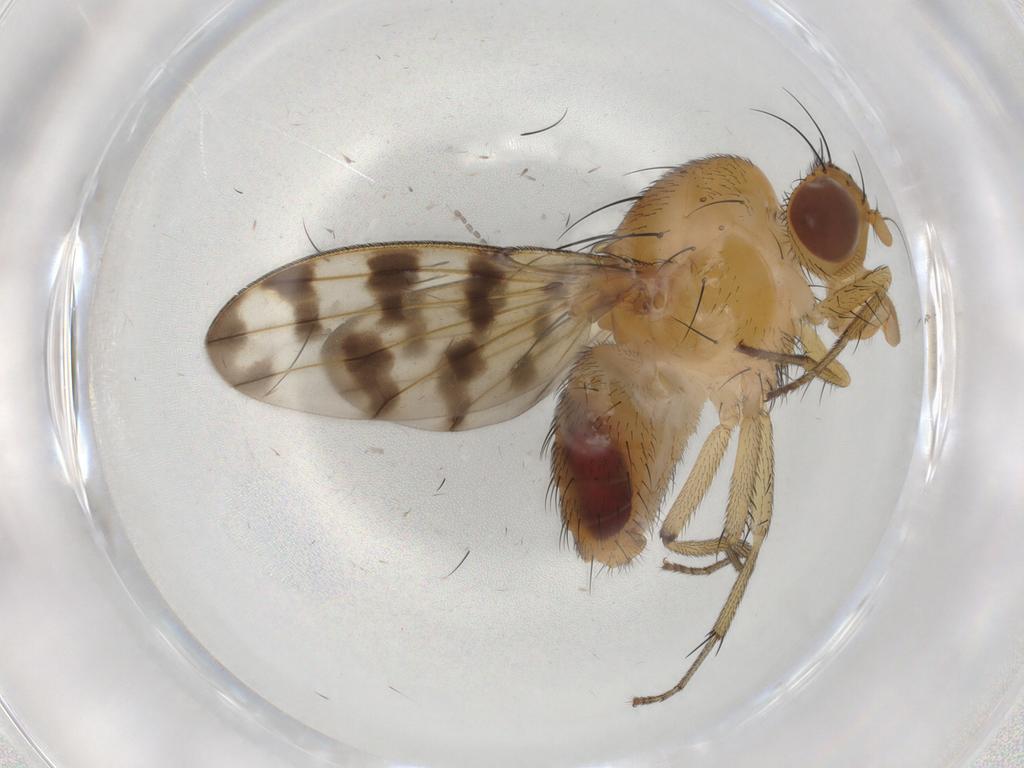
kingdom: Animalia
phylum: Arthropoda
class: Insecta
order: Diptera
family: Cecidomyiidae
